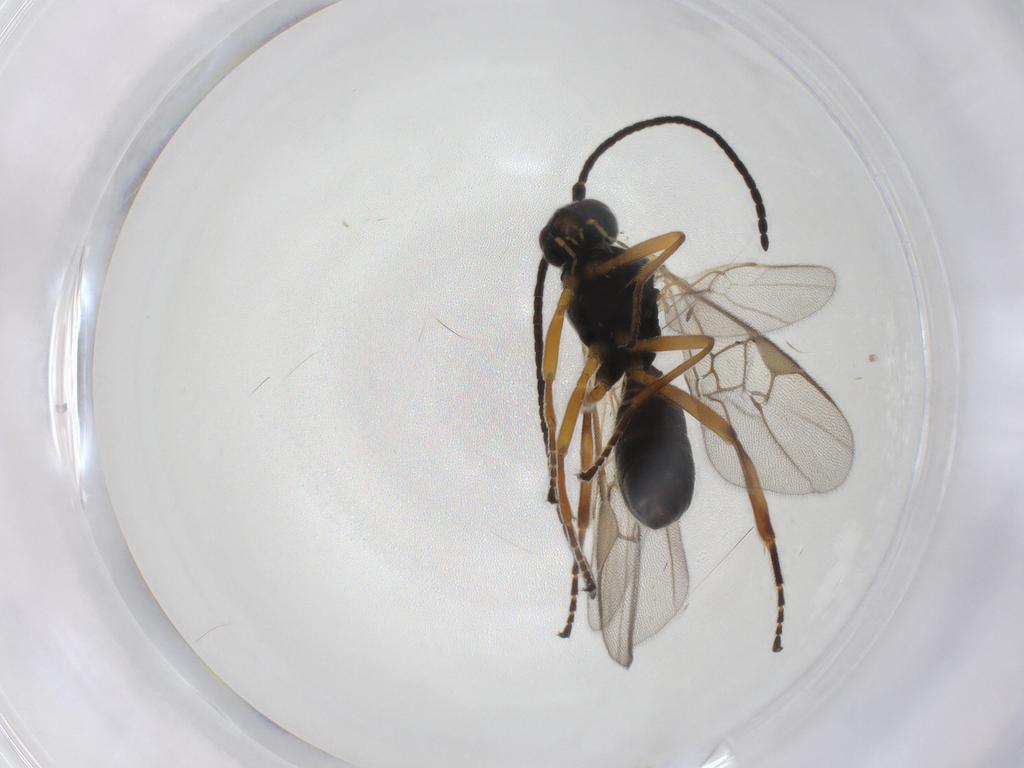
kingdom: Animalia
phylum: Arthropoda
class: Insecta
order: Hymenoptera
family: Braconidae
